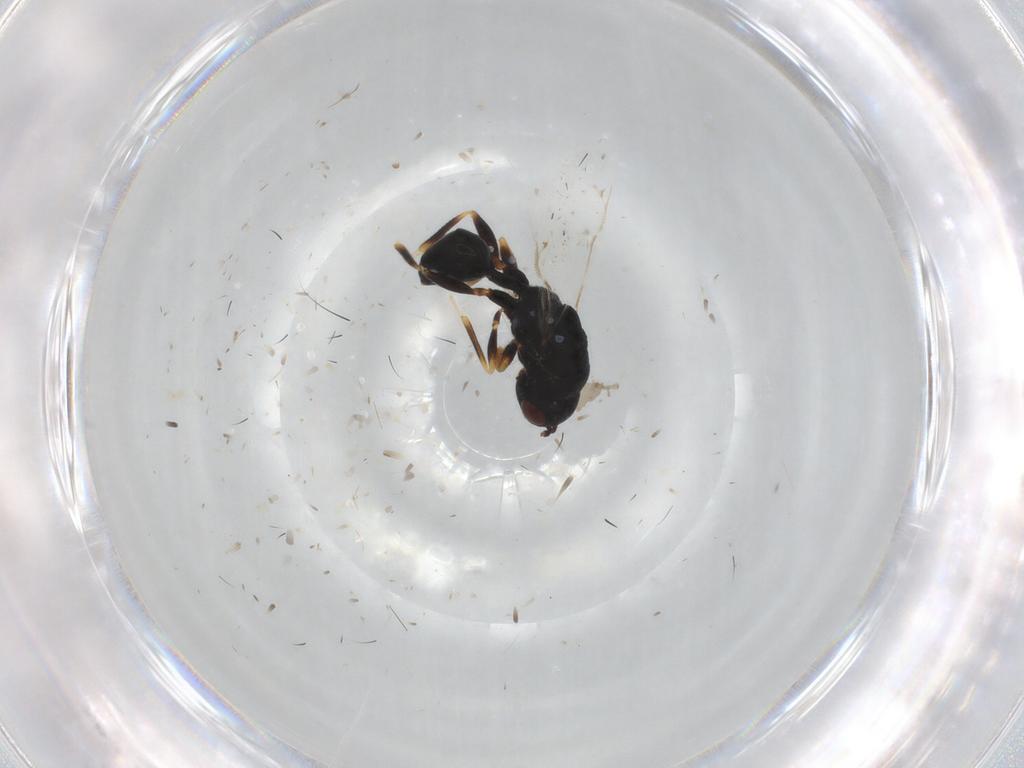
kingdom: Animalia
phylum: Arthropoda
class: Insecta
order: Hymenoptera
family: Eurytomidae
